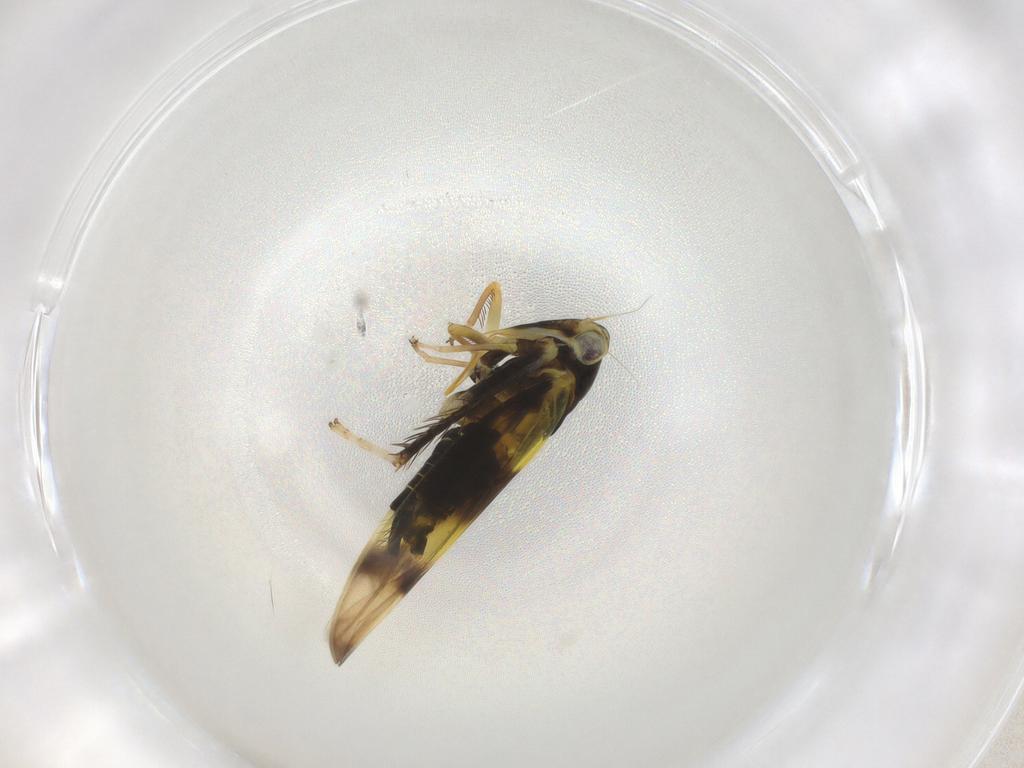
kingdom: Animalia
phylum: Arthropoda
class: Insecta
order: Hemiptera
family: Cicadellidae
